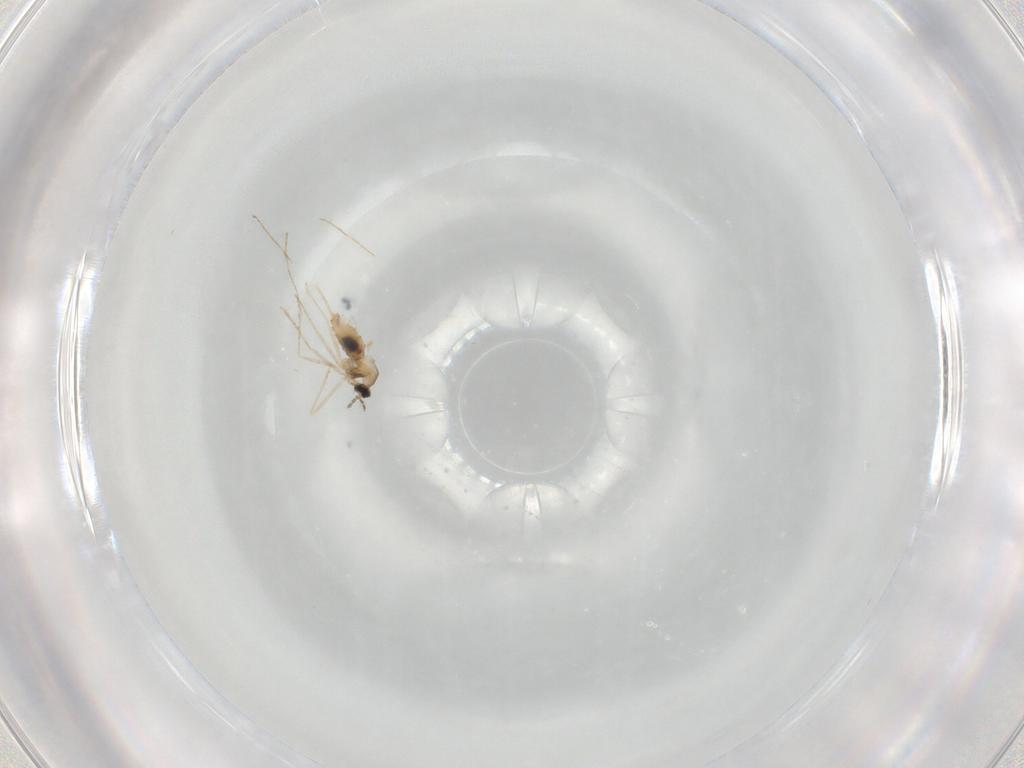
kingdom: Animalia
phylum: Arthropoda
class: Insecta
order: Diptera
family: Cecidomyiidae
